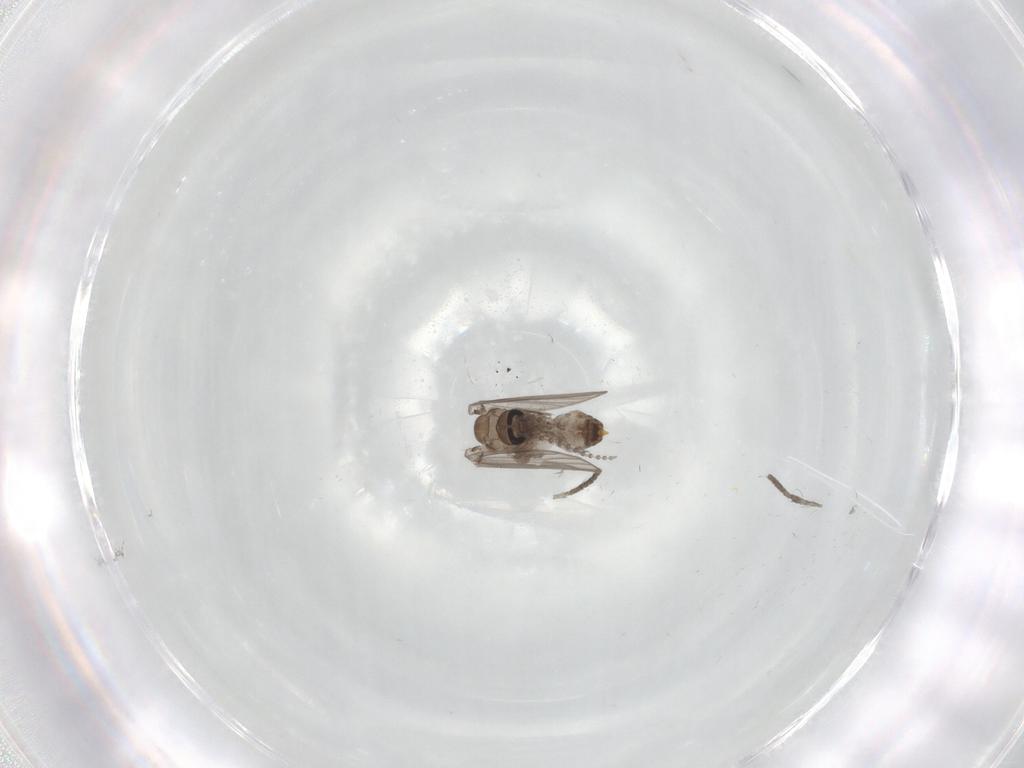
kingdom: Animalia
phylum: Arthropoda
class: Insecta
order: Diptera
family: Psychodidae
